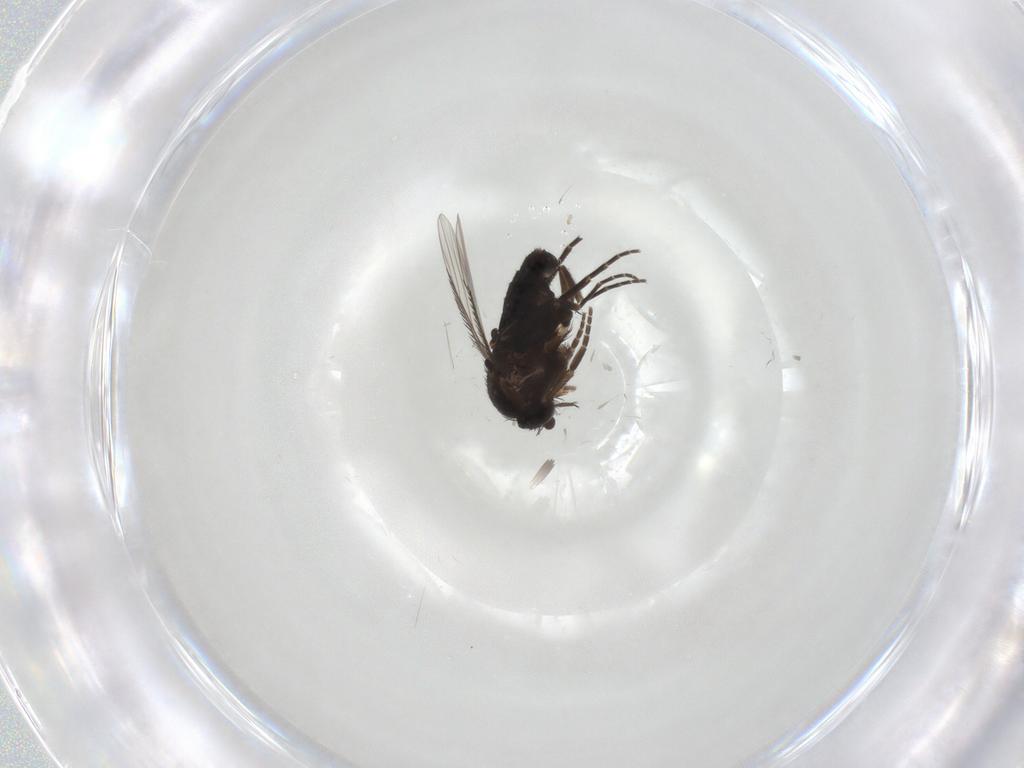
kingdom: Animalia
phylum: Arthropoda
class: Insecta
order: Diptera
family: Phoridae
